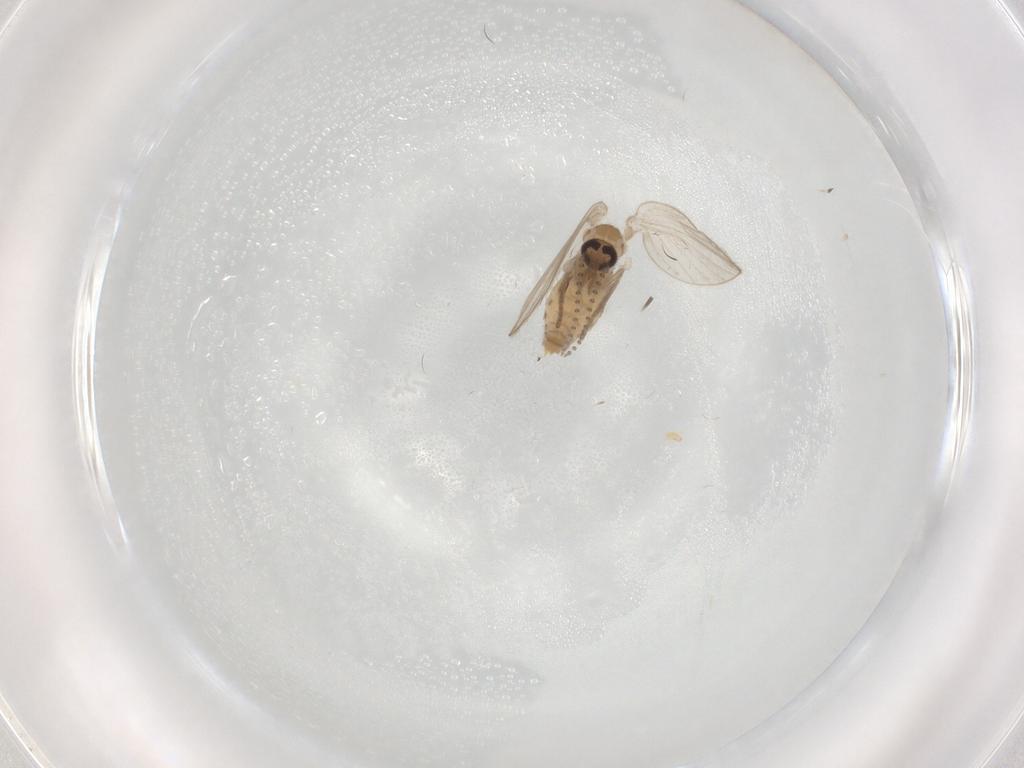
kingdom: Animalia
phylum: Arthropoda
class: Insecta
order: Diptera
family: Psychodidae
